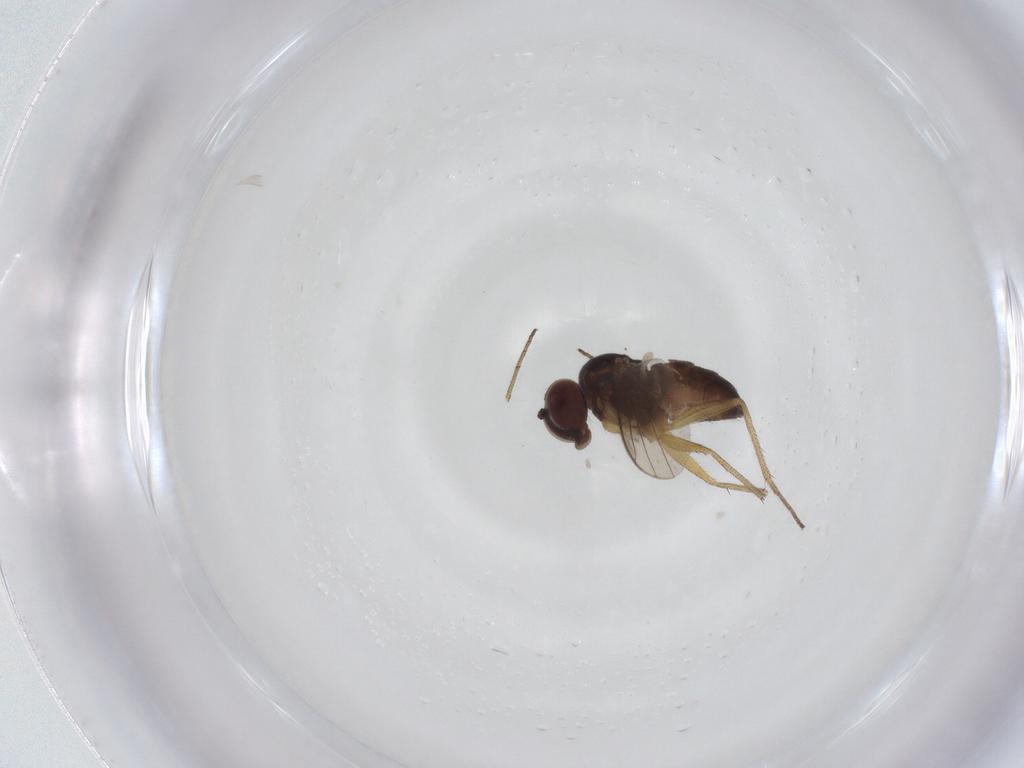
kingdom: Animalia
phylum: Arthropoda
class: Insecta
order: Diptera
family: Dolichopodidae
